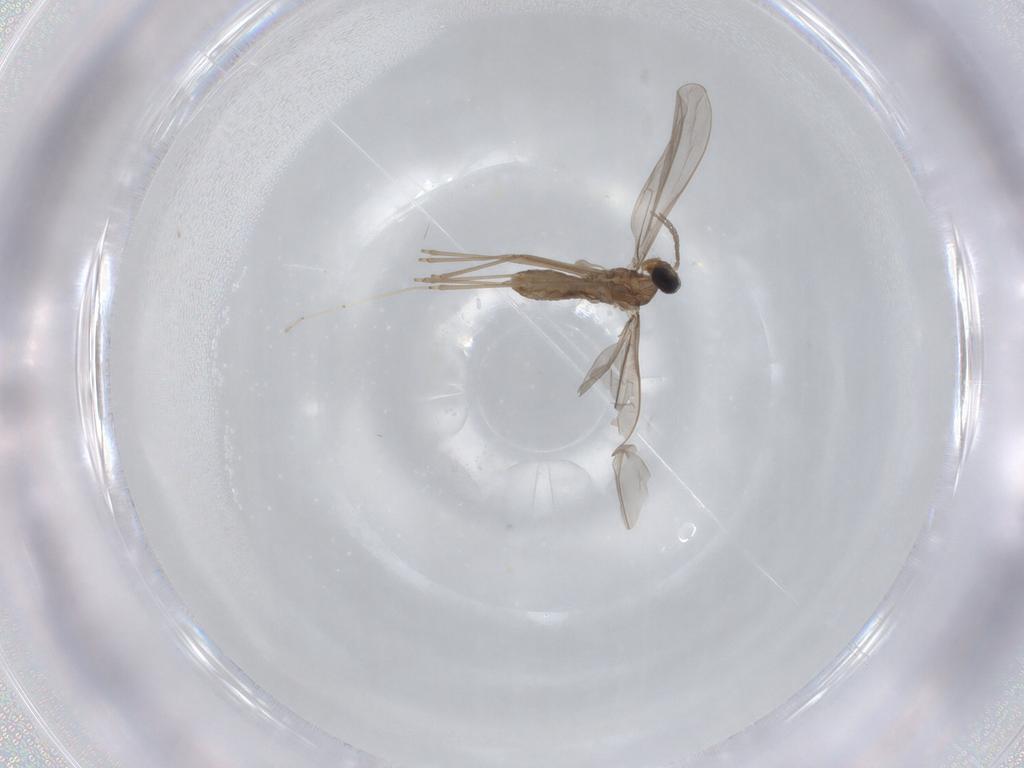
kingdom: Animalia
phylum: Arthropoda
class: Insecta
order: Diptera
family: Cecidomyiidae
